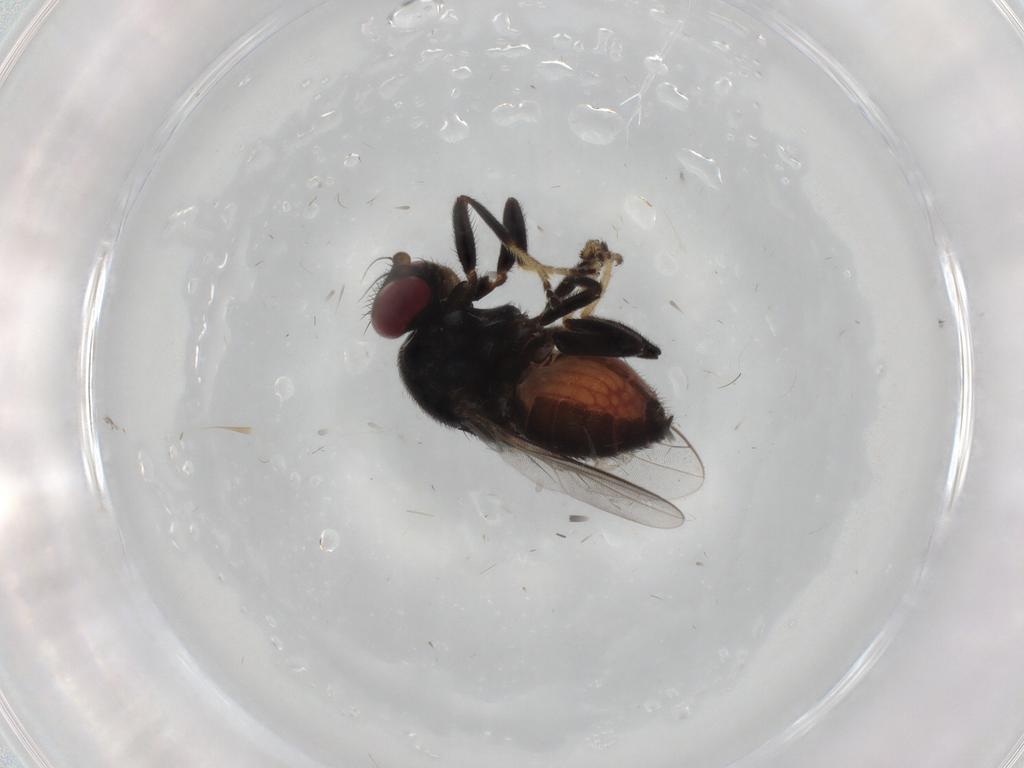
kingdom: Animalia
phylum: Arthropoda
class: Insecta
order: Diptera
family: Chloropidae
